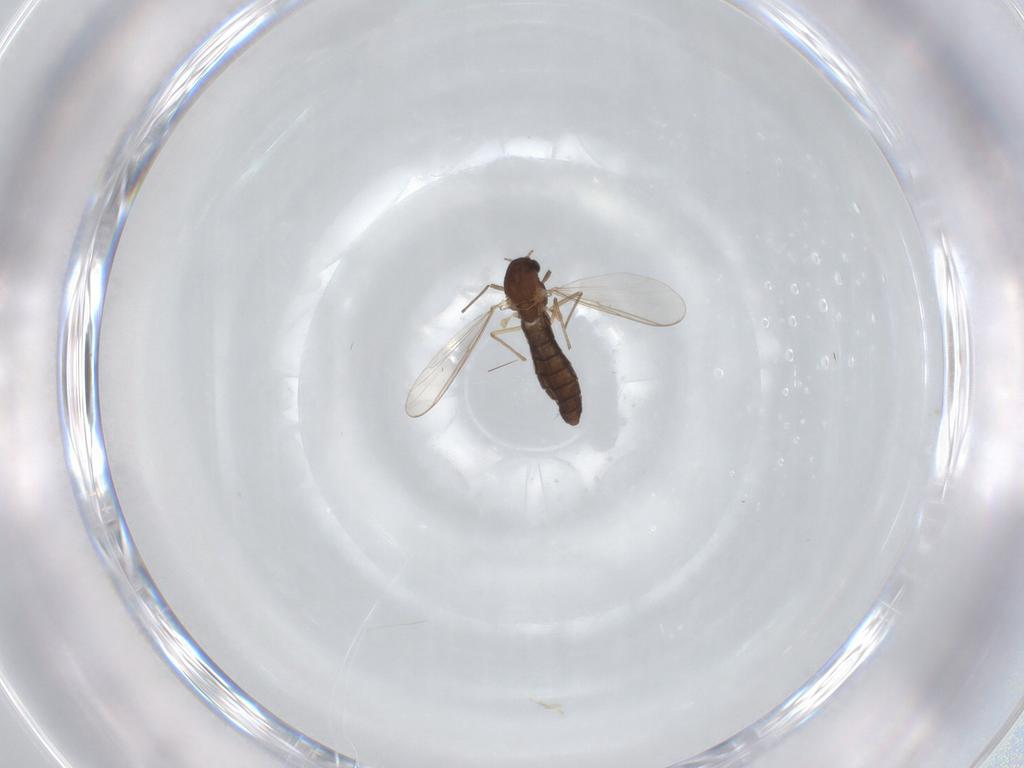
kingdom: Animalia
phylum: Arthropoda
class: Insecta
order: Diptera
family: Chironomidae
